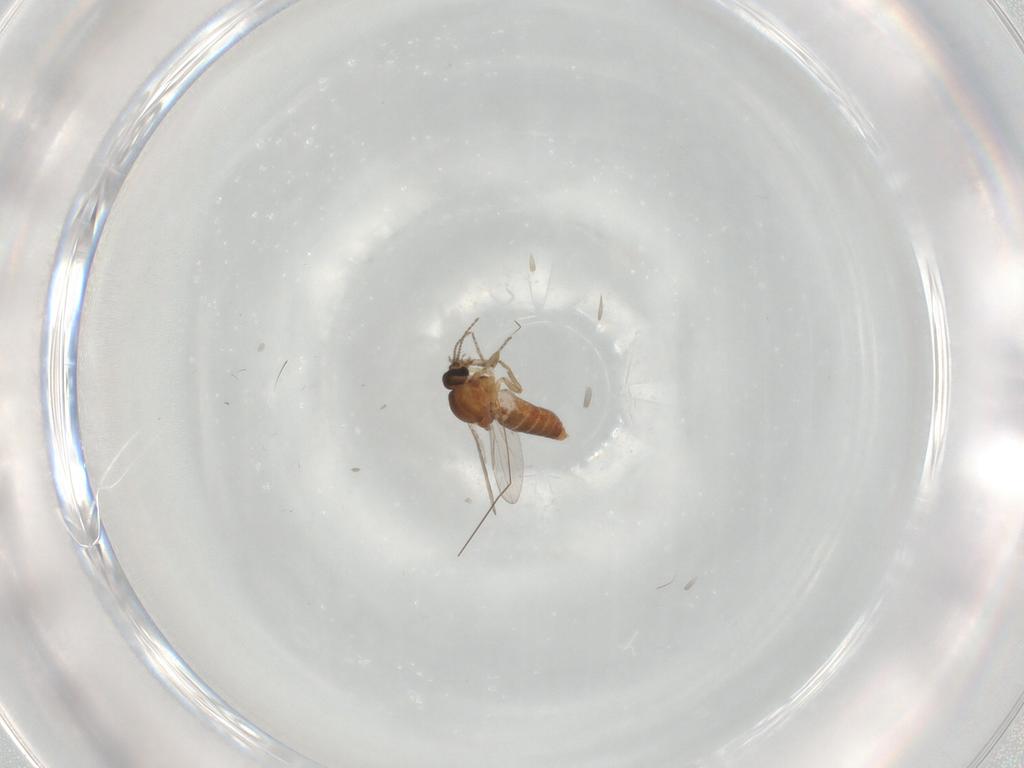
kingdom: Animalia
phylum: Arthropoda
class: Insecta
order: Diptera
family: Ceratopogonidae
